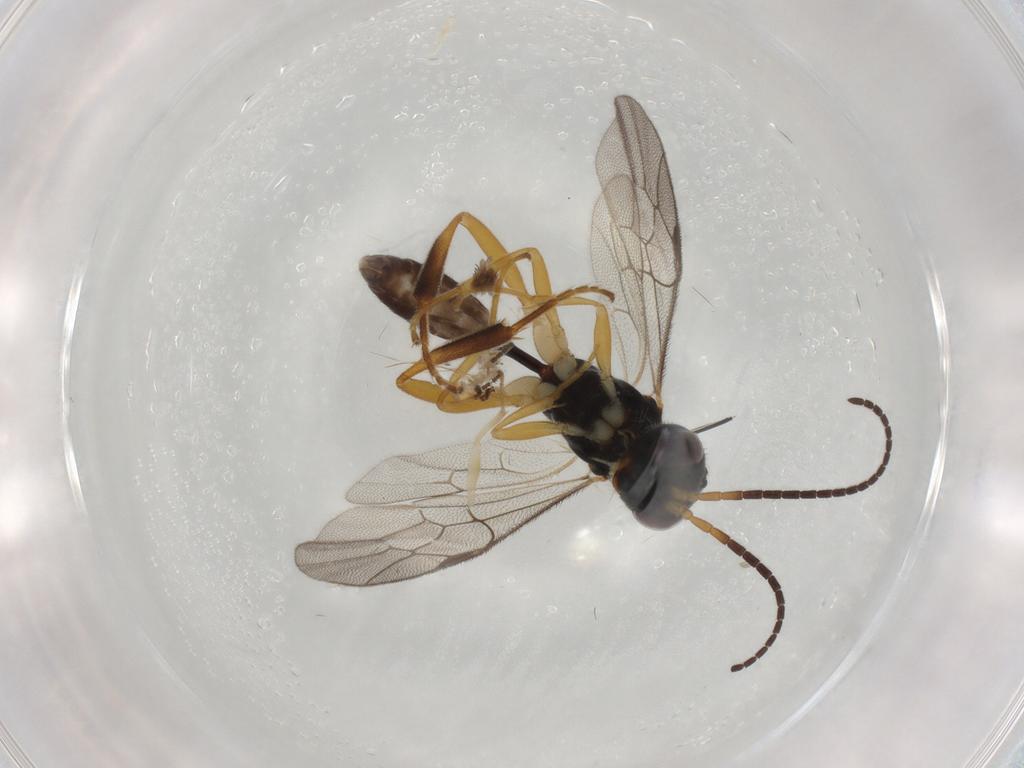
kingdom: Animalia
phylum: Arthropoda
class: Insecta
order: Hymenoptera
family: Ichneumonidae
